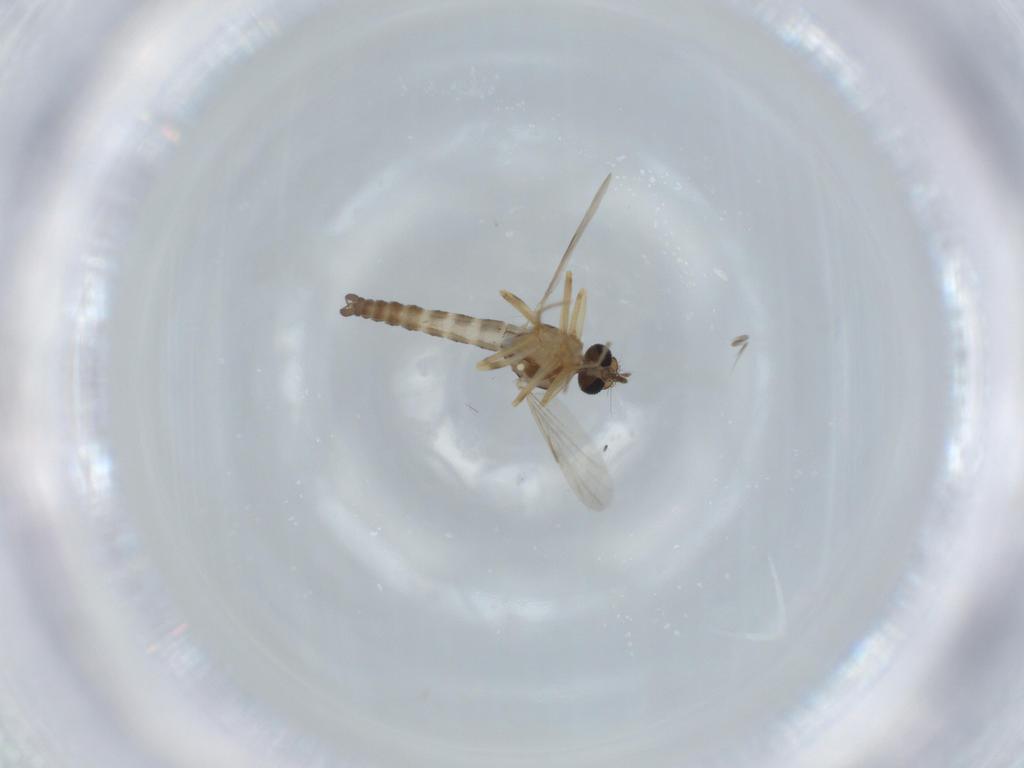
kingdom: Animalia
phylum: Arthropoda
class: Insecta
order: Diptera
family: Ceratopogonidae
